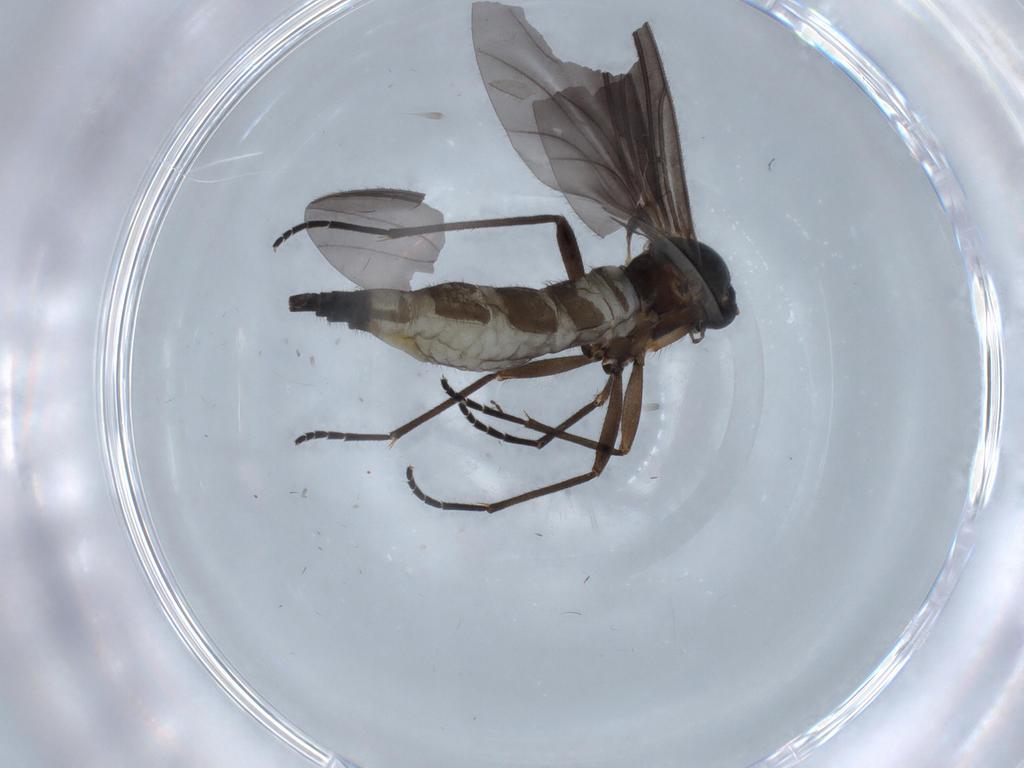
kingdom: Animalia
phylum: Arthropoda
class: Insecta
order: Diptera
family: Sciaridae
